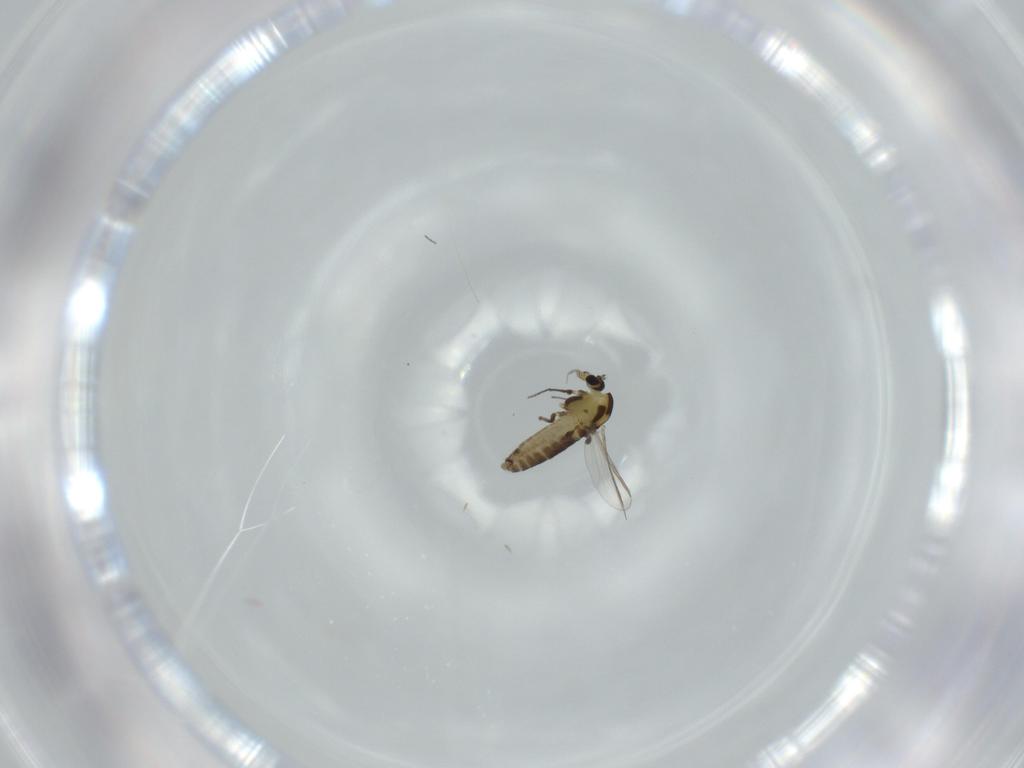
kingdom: Animalia
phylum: Arthropoda
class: Insecta
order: Diptera
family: Chironomidae
